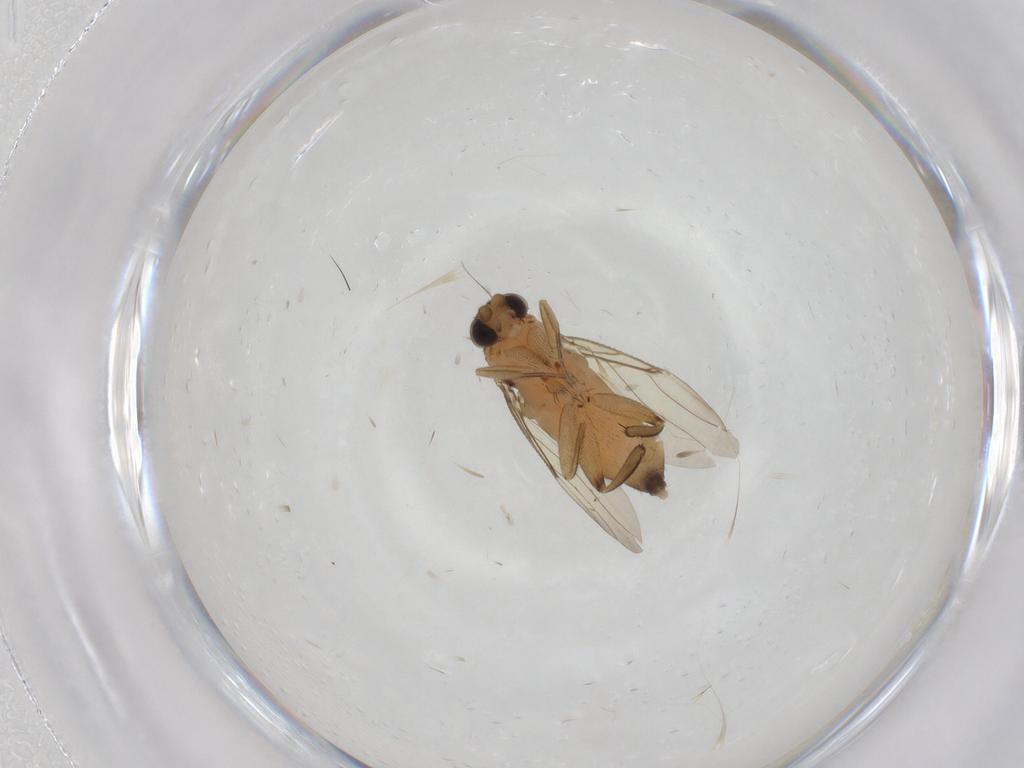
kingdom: Animalia
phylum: Arthropoda
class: Insecta
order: Diptera
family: Phoridae
